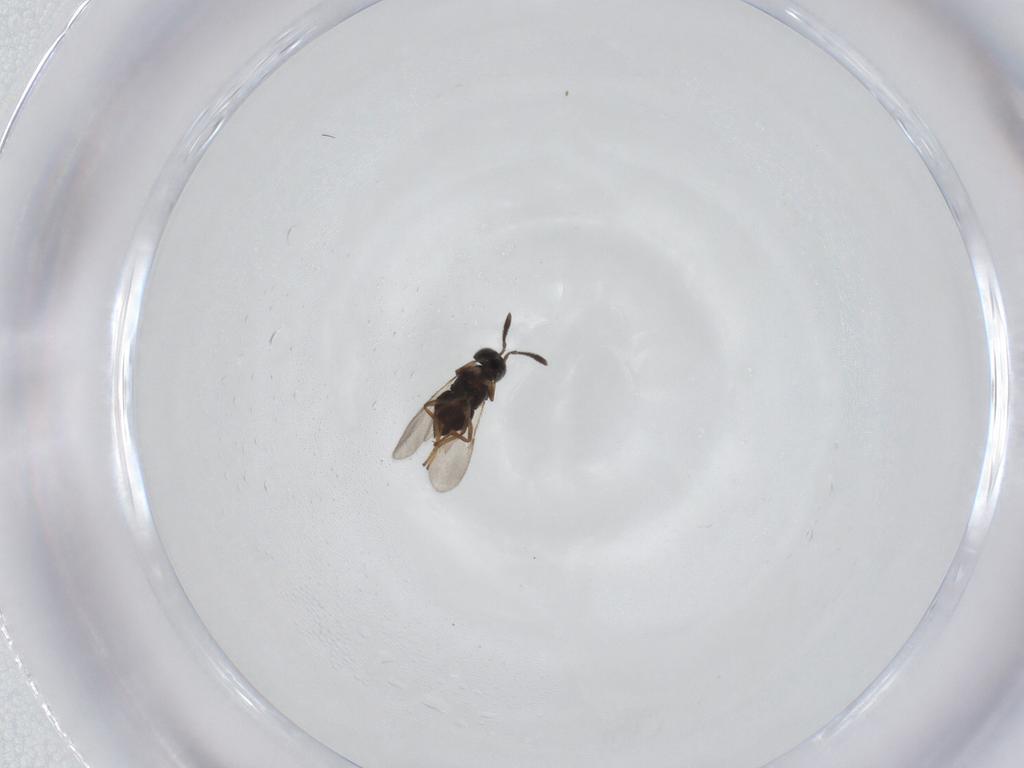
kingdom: Animalia
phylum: Arthropoda
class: Insecta
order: Diptera
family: Chironomidae
